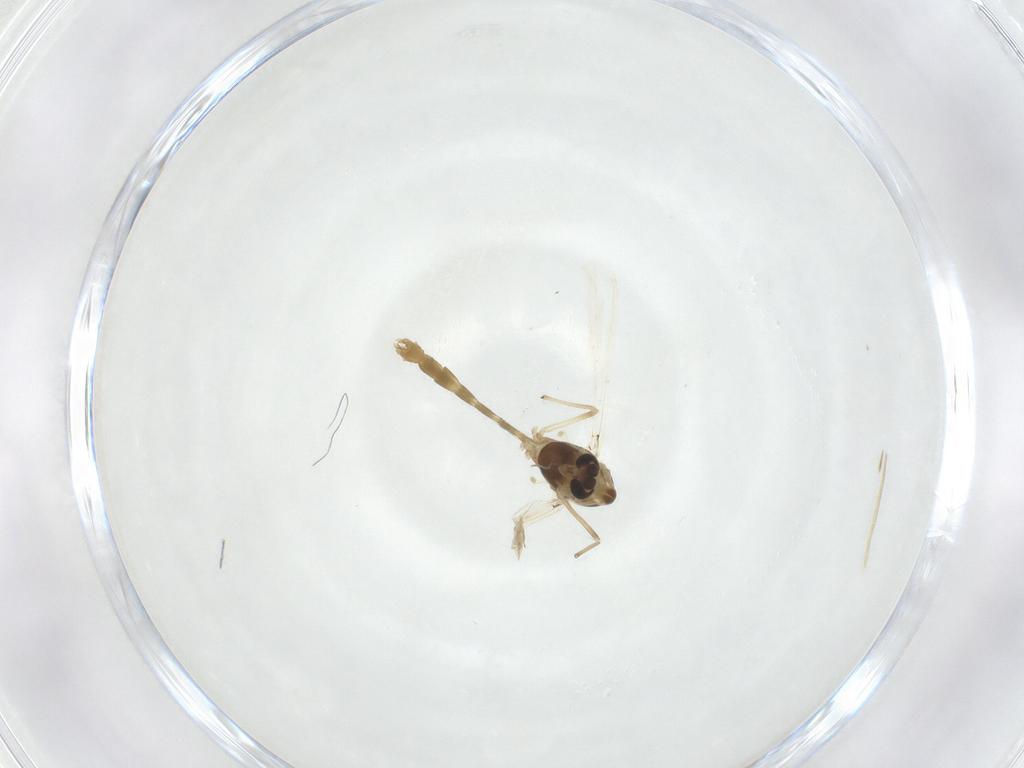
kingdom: Animalia
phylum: Arthropoda
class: Insecta
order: Diptera
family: Chironomidae
